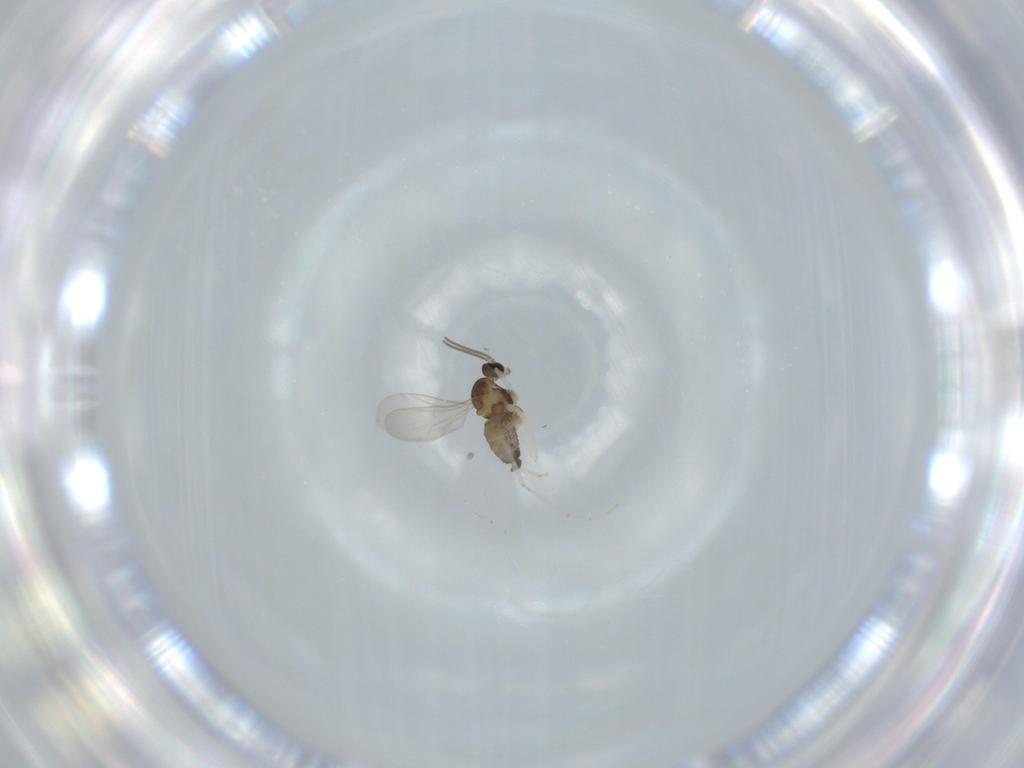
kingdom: Animalia
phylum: Arthropoda
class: Insecta
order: Diptera
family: Cecidomyiidae
